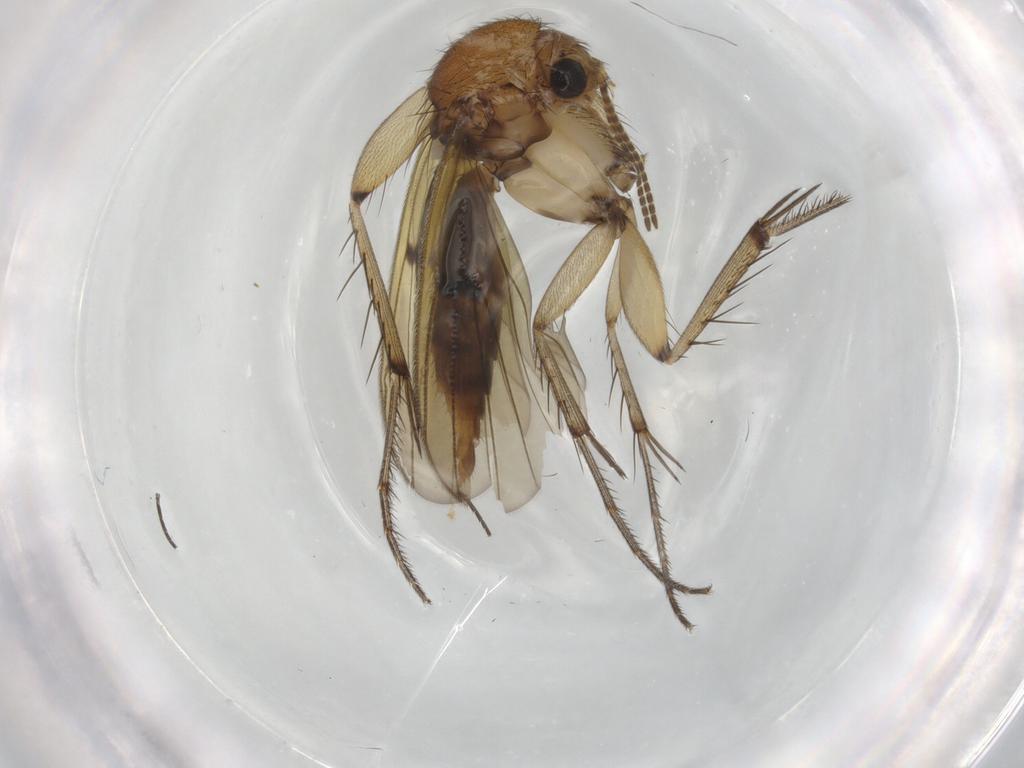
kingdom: Animalia
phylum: Arthropoda
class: Insecta
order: Diptera
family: Mycetophilidae
